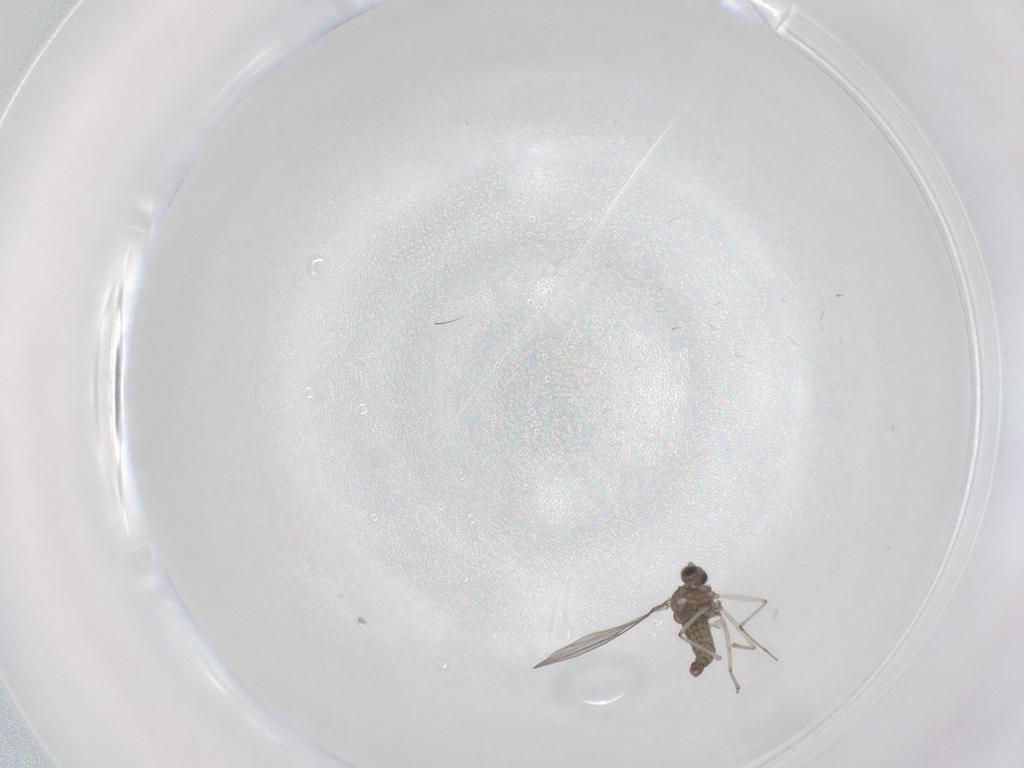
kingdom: Animalia
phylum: Arthropoda
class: Insecta
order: Diptera
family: Cecidomyiidae
